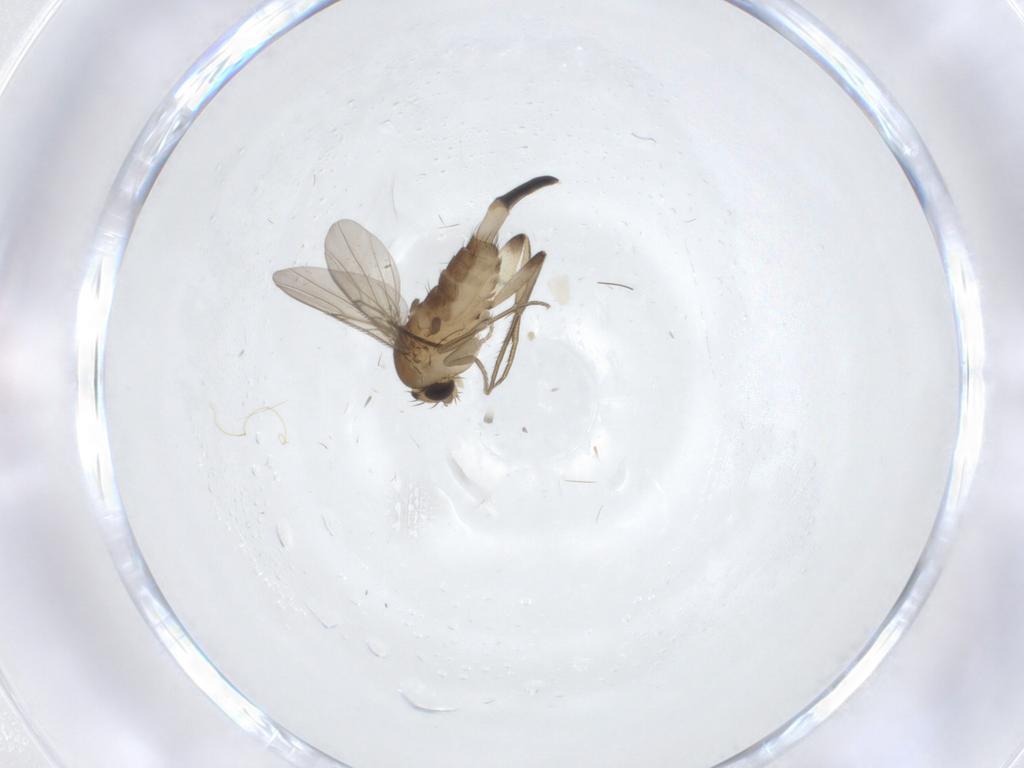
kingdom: Animalia
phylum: Arthropoda
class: Insecta
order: Diptera
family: Phoridae
